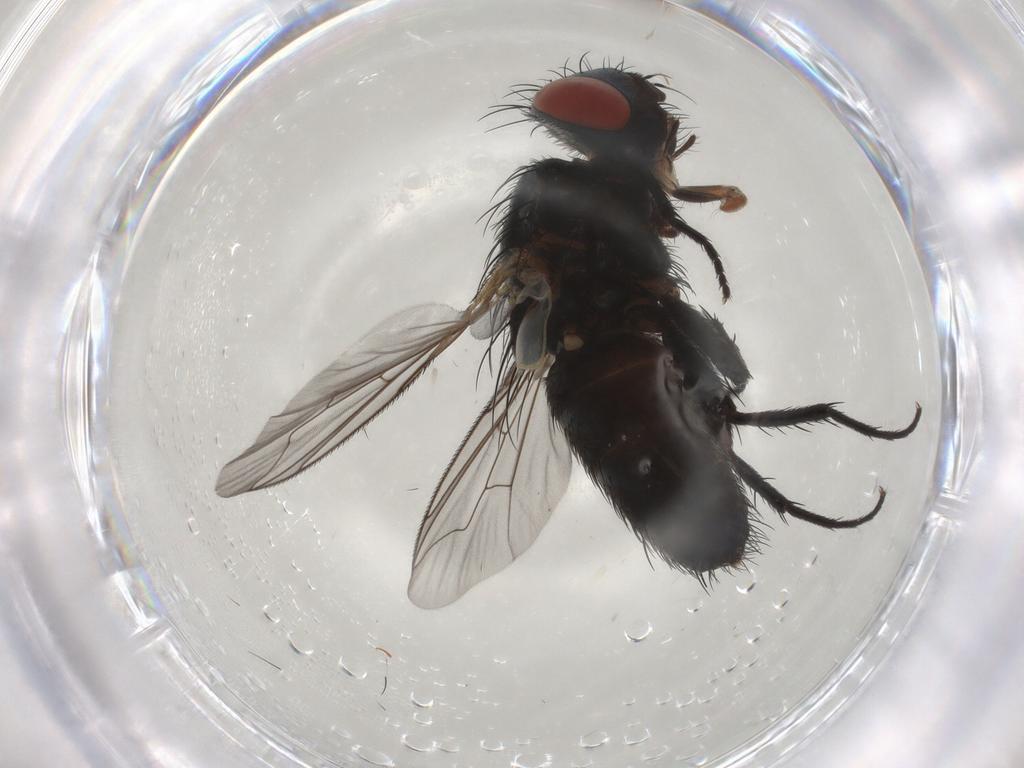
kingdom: Animalia
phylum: Arthropoda
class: Insecta
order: Diptera
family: Sarcophagidae
